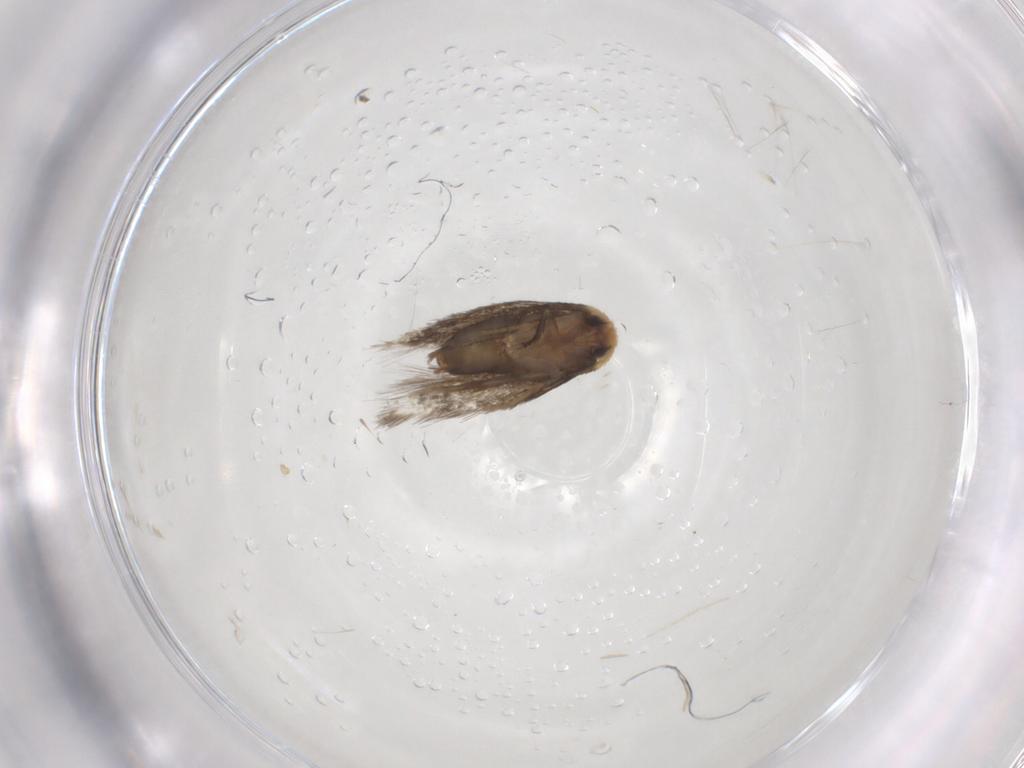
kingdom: Animalia
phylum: Arthropoda
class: Insecta
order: Lepidoptera
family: Nepticulidae
